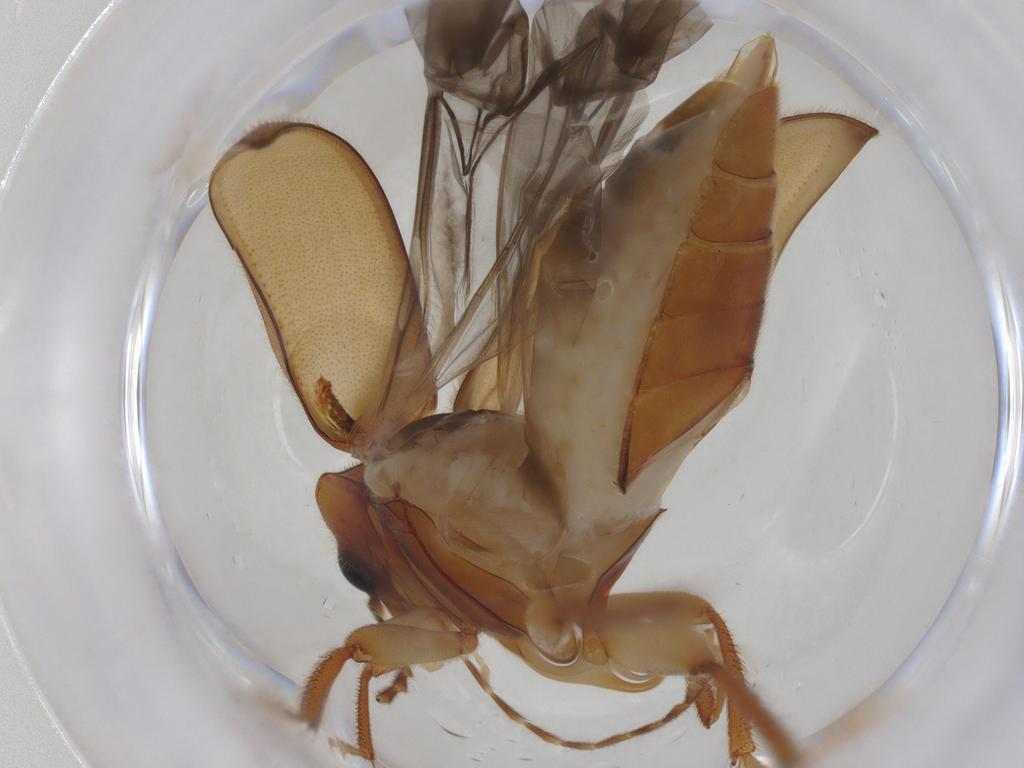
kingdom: Animalia
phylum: Arthropoda
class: Insecta
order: Coleoptera
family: Ptilodactylidae
